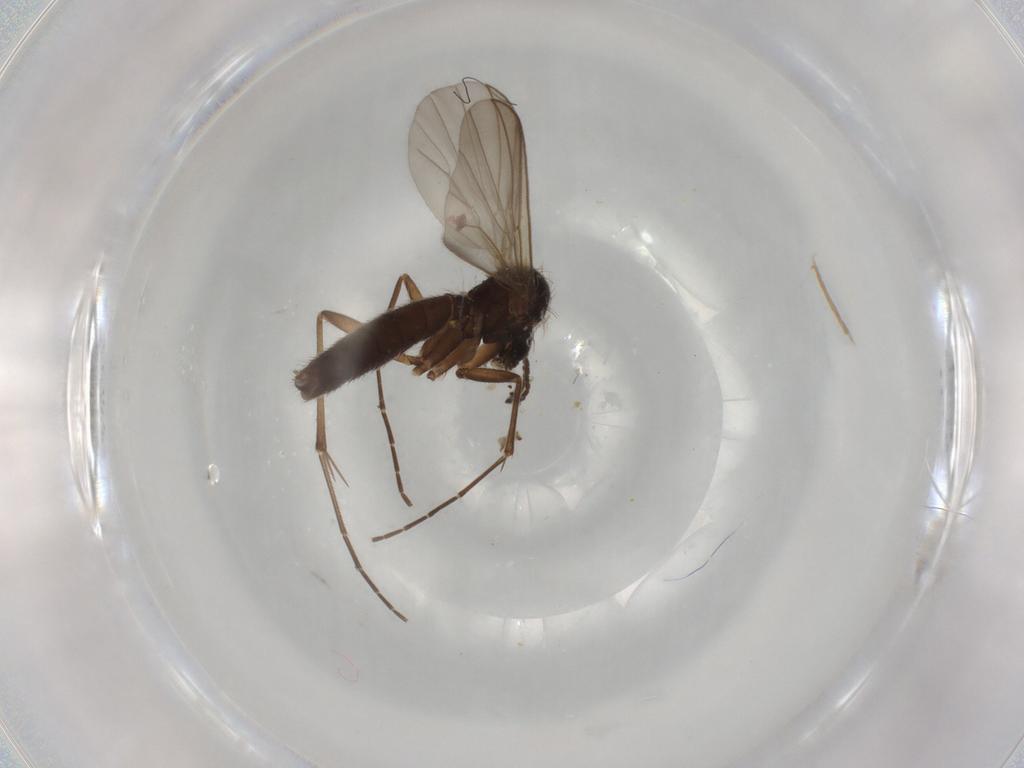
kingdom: Animalia
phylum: Arthropoda
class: Insecta
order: Diptera
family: Mycetophilidae
